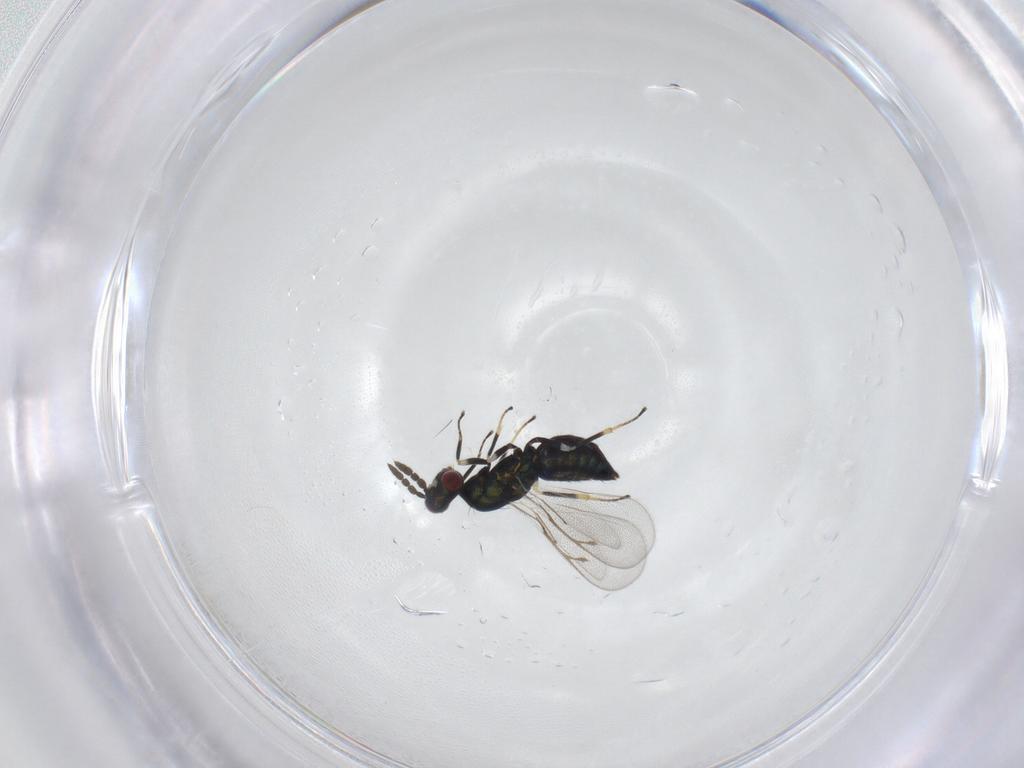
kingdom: Animalia
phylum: Arthropoda
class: Insecta
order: Hymenoptera
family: Eulophidae
